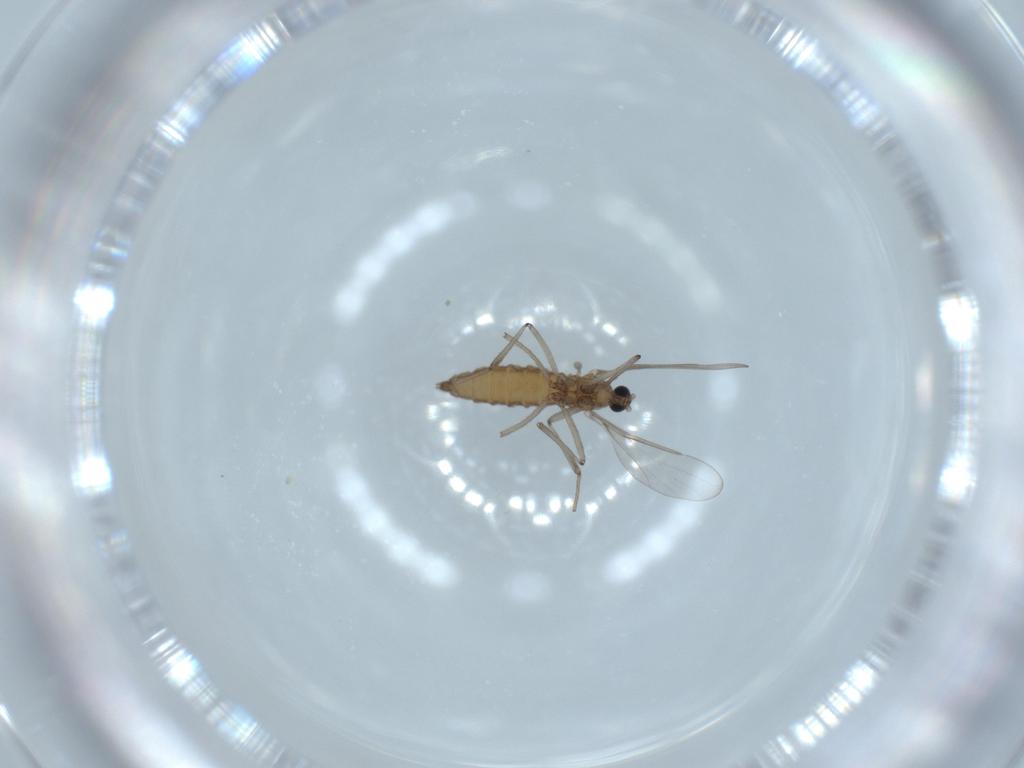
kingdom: Animalia
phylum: Arthropoda
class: Insecta
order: Diptera
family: Cecidomyiidae
